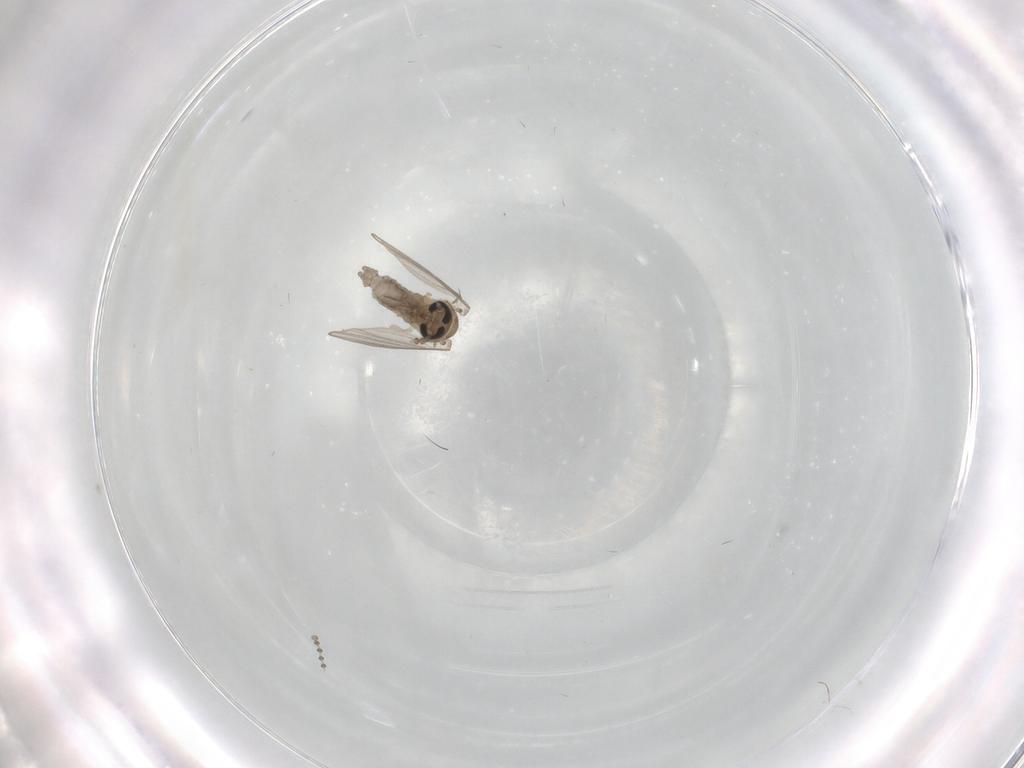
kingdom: Animalia
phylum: Arthropoda
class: Insecta
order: Diptera
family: Ceratopogonidae
